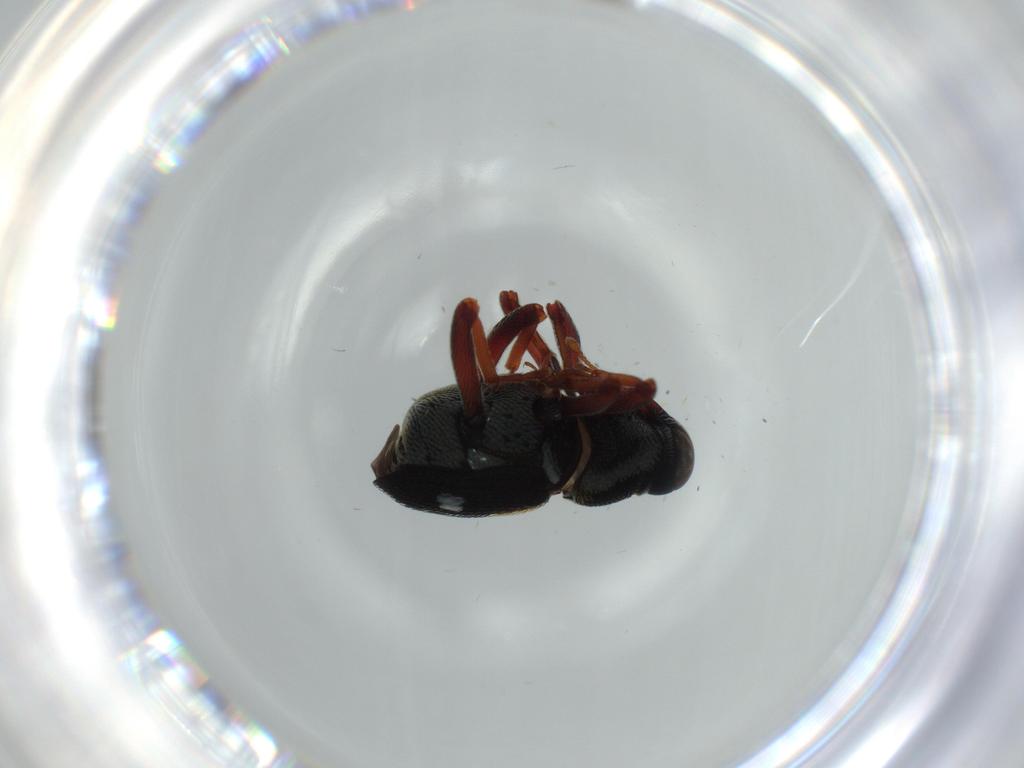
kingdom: Animalia
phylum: Arthropoda
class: Insecta
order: Coleoptera
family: Curculionidae
